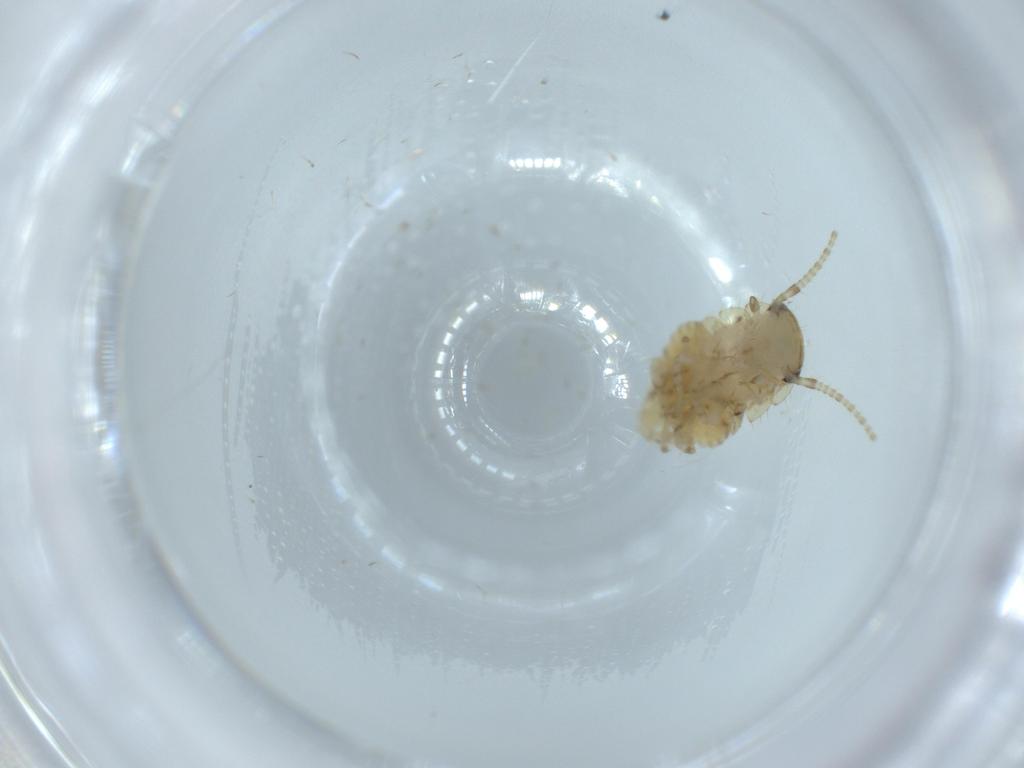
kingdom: Animalia
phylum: Arthropoda
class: Insecta
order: Blattodea
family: Ectobiidae
